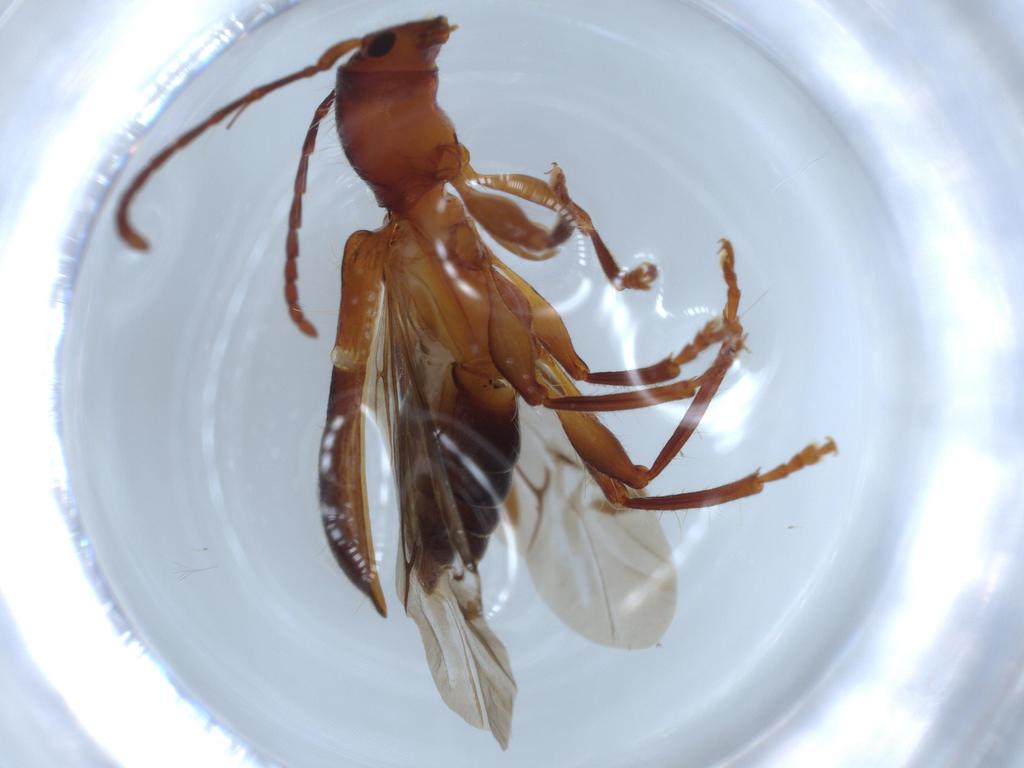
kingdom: Animalia
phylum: Arthropoda
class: Insecta
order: Coleoptera
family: Cerambycidae
